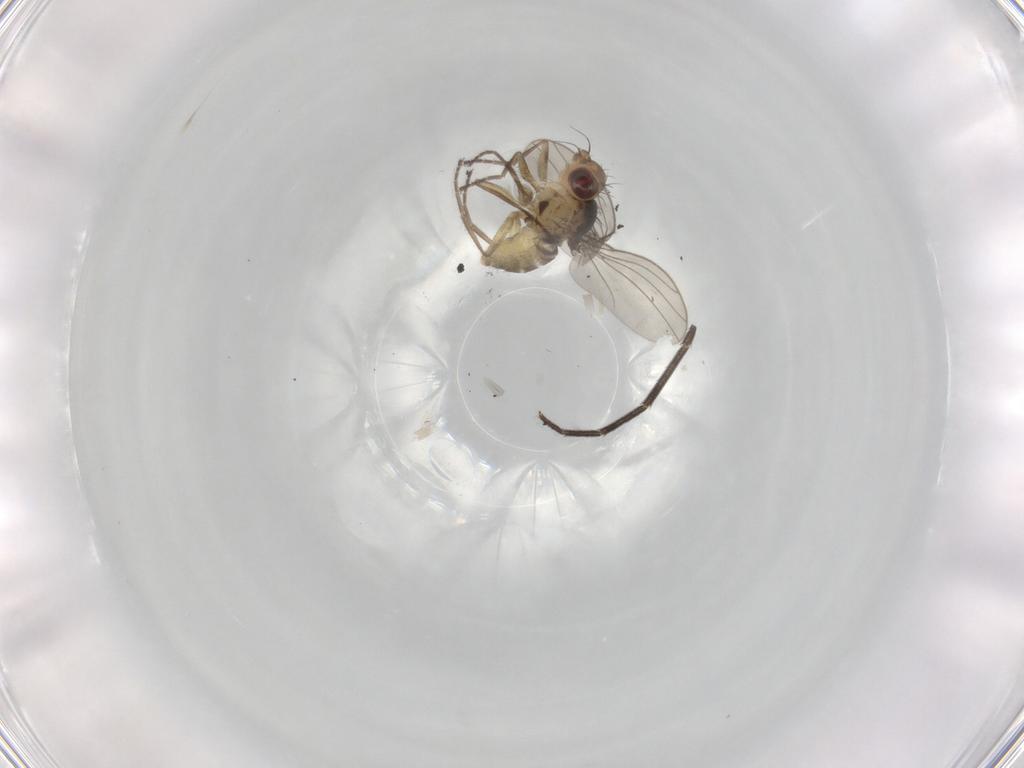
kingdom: Animalia
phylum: Arthropoda
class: Insecta
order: Diptera
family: Agromyzidae
